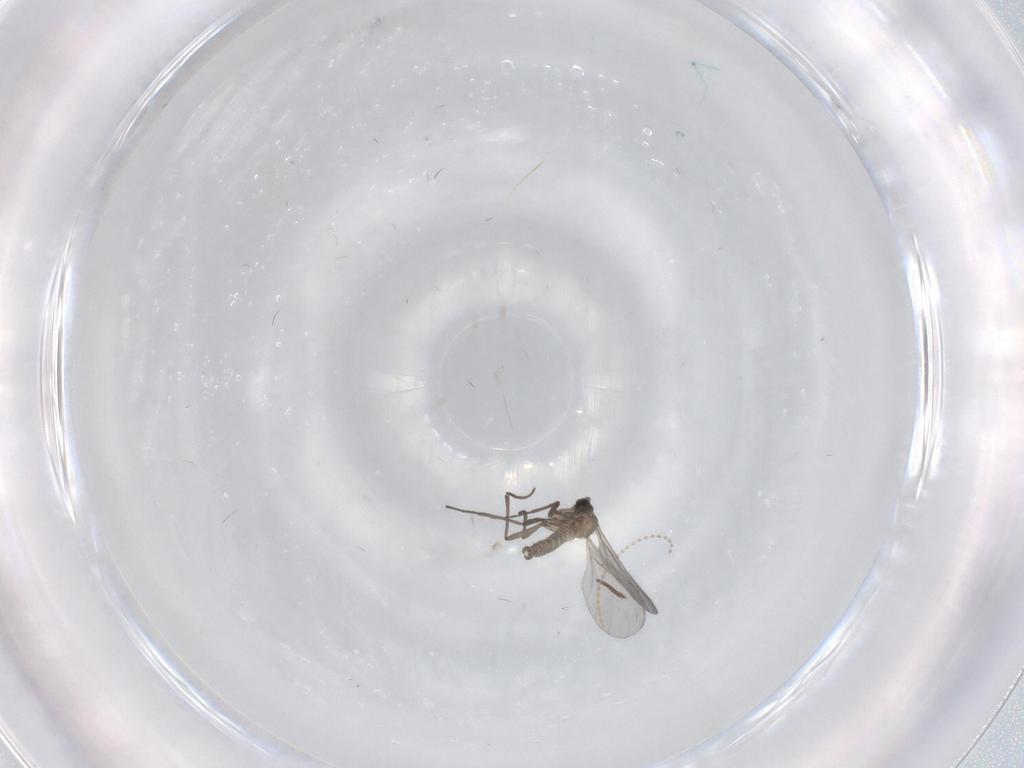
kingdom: Animalia
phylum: Arthropoda
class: Insecta
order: Diptera
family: Sciaridae
